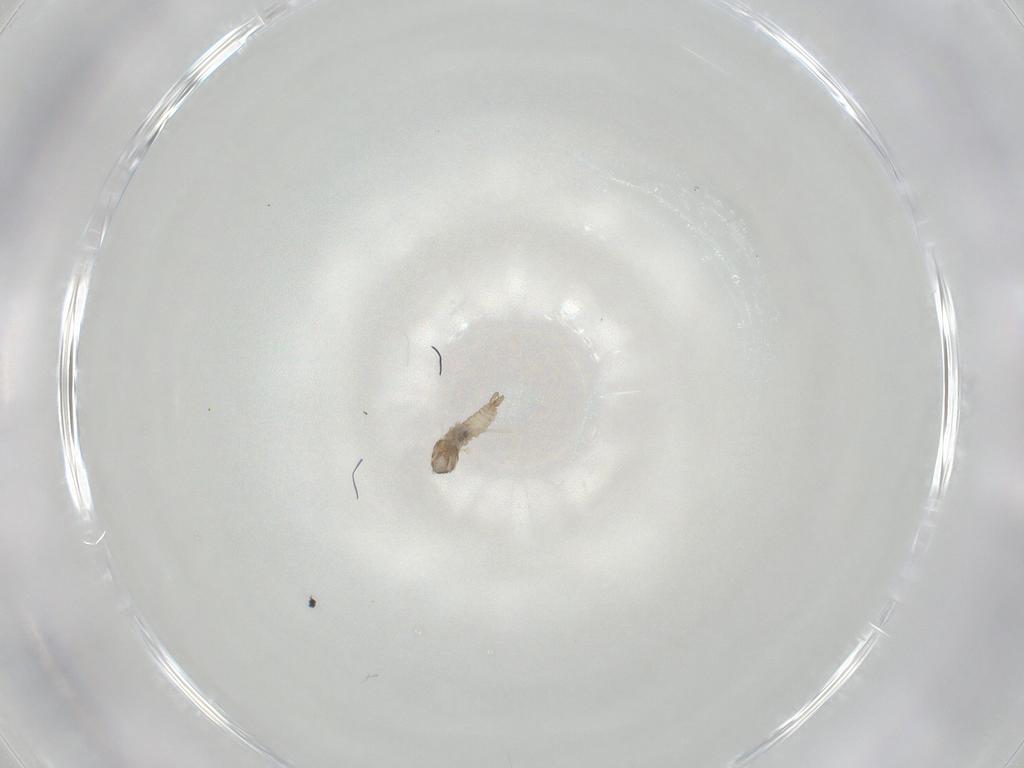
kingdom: Animalia
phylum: Arthropoda
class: Insecta
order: Diptera
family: Cecidomyiidae
